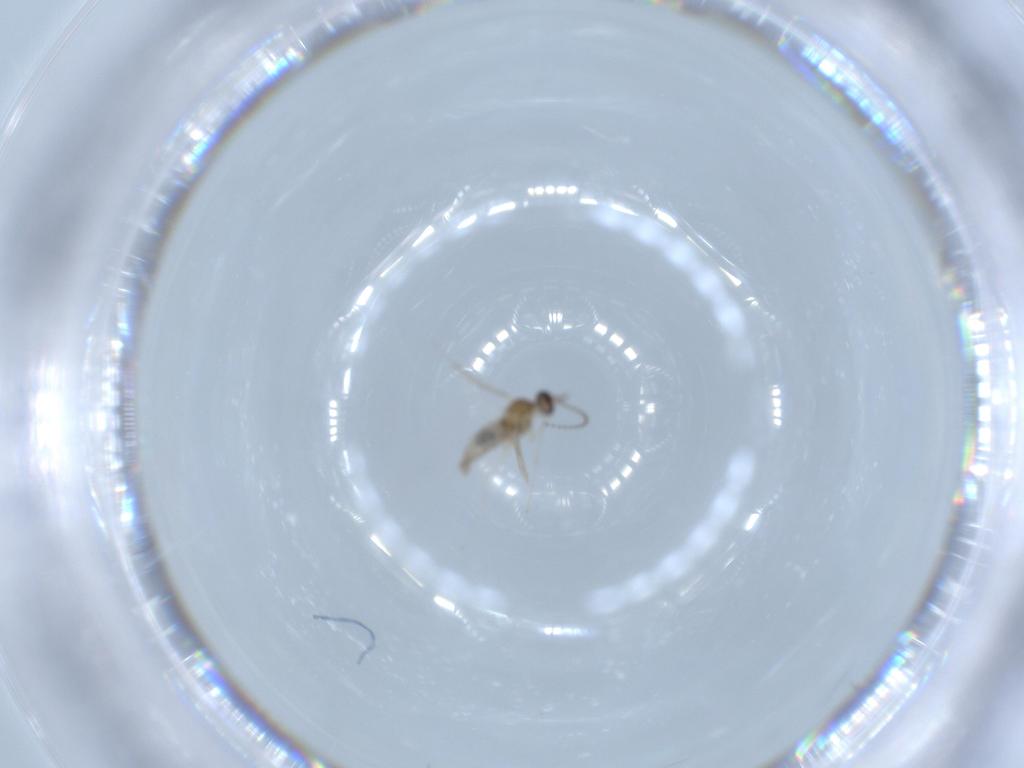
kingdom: Animalia
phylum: Arthropoda
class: Insecta
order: Diptera
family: Cecidomyiidae
